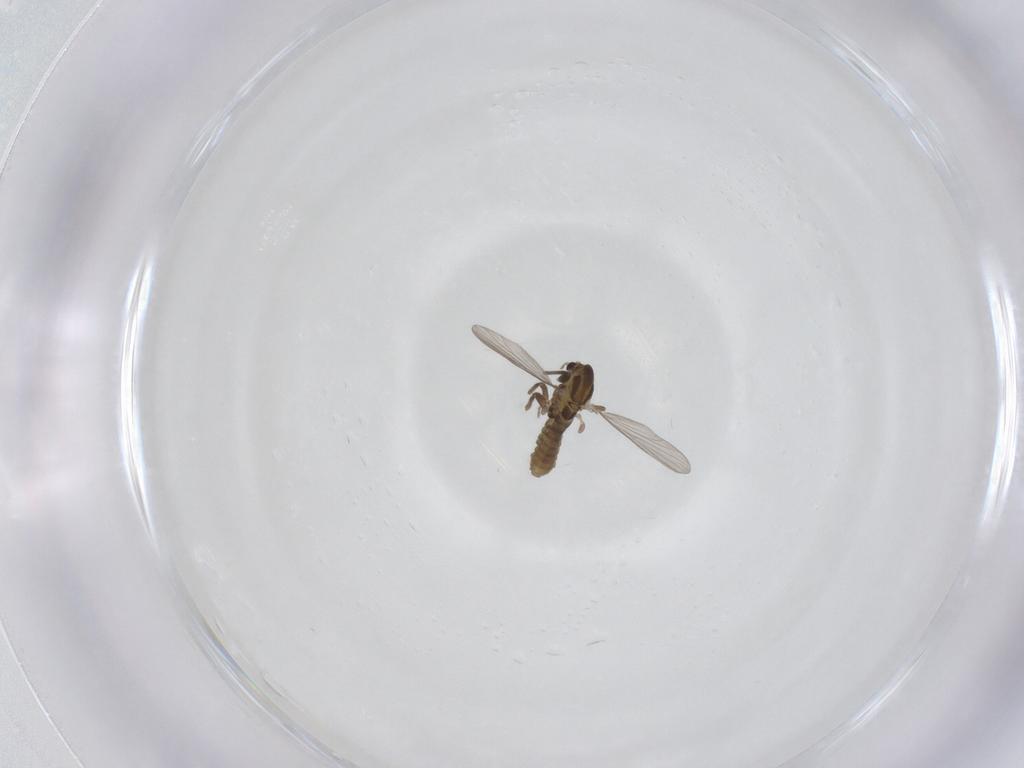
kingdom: Animalia
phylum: Arthropoda
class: Insecta
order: Diptera
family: Chironomidae
